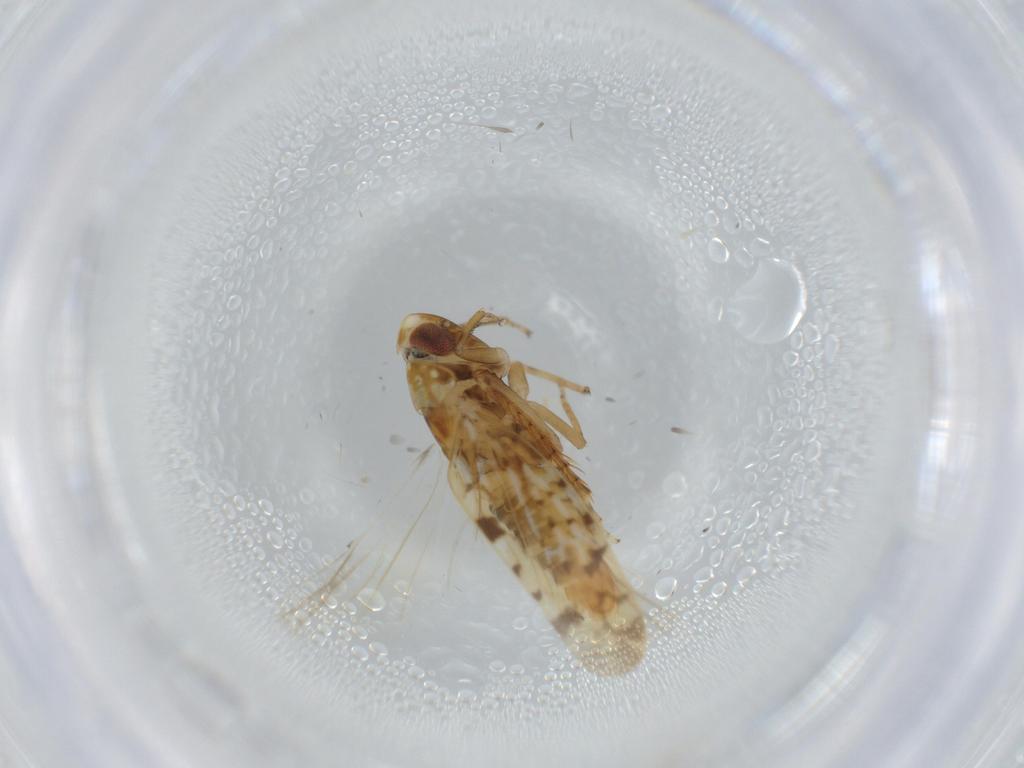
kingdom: Animalia
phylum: Arthropoda
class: Insecta
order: Hemiptera
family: Cicadellidae
